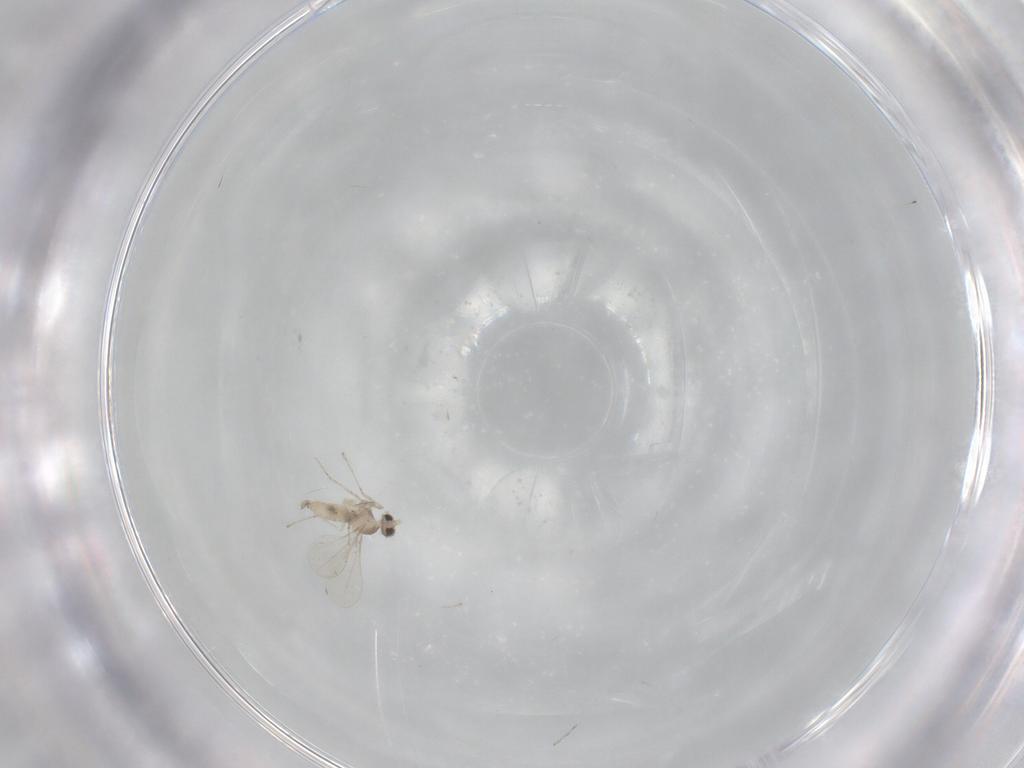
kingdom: Animalia
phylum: Arthropoda
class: Insecta
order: Diptera
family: Cecidomyiidae
